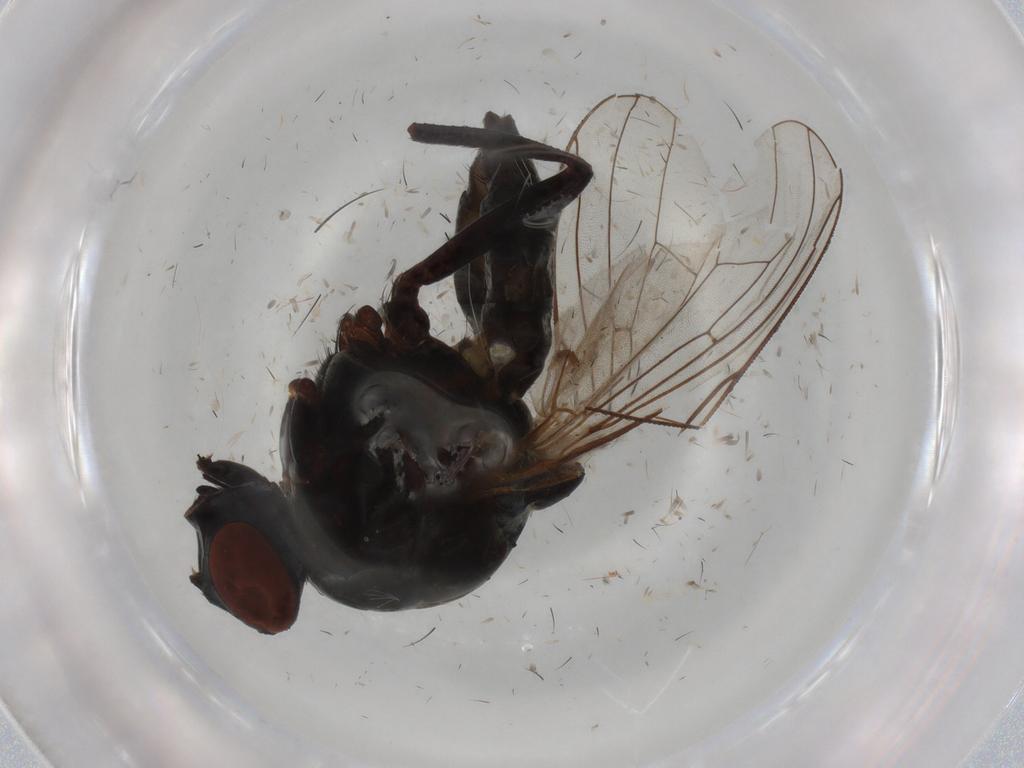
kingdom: Animalia
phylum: Arthropoda
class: Insecta
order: Diptera
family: Anthomyiidae
